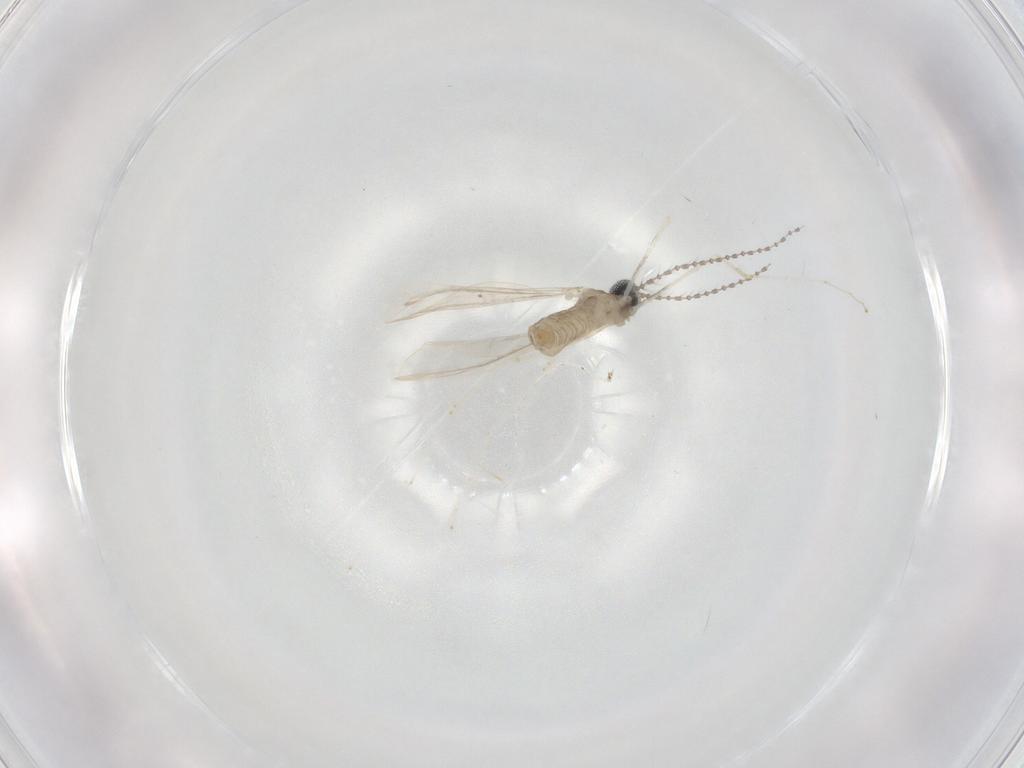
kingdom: Animalia
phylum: Arthropoda
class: Insecta
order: Diptera
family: Cecidomyiidae
